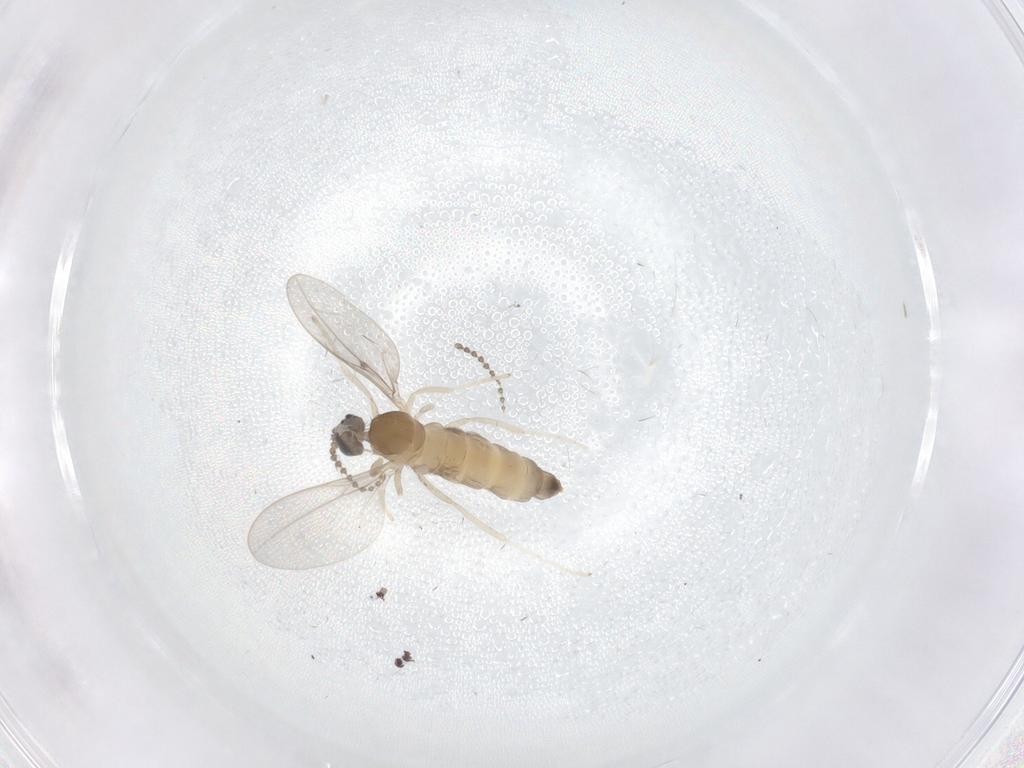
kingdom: Animalia
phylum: Arthropoda
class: Insecta
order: Diptera
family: Cecidomyiidae
